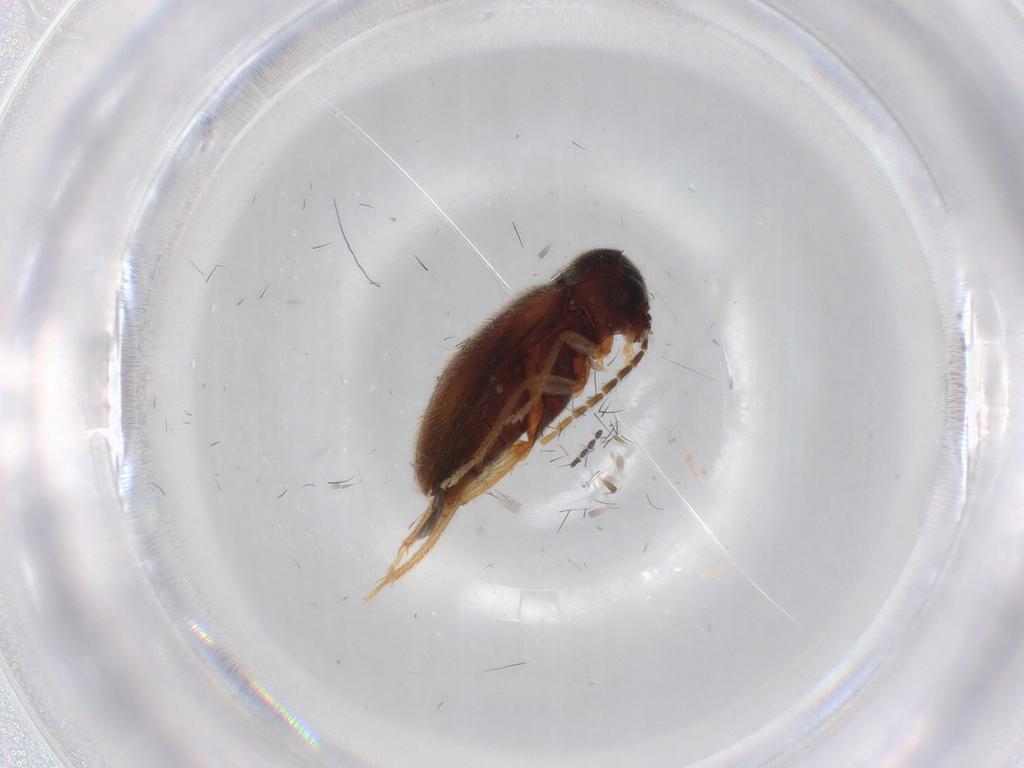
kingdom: Animalia
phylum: Arthropoda
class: Insecta
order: Coleoptera
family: Ptilodactylidae
